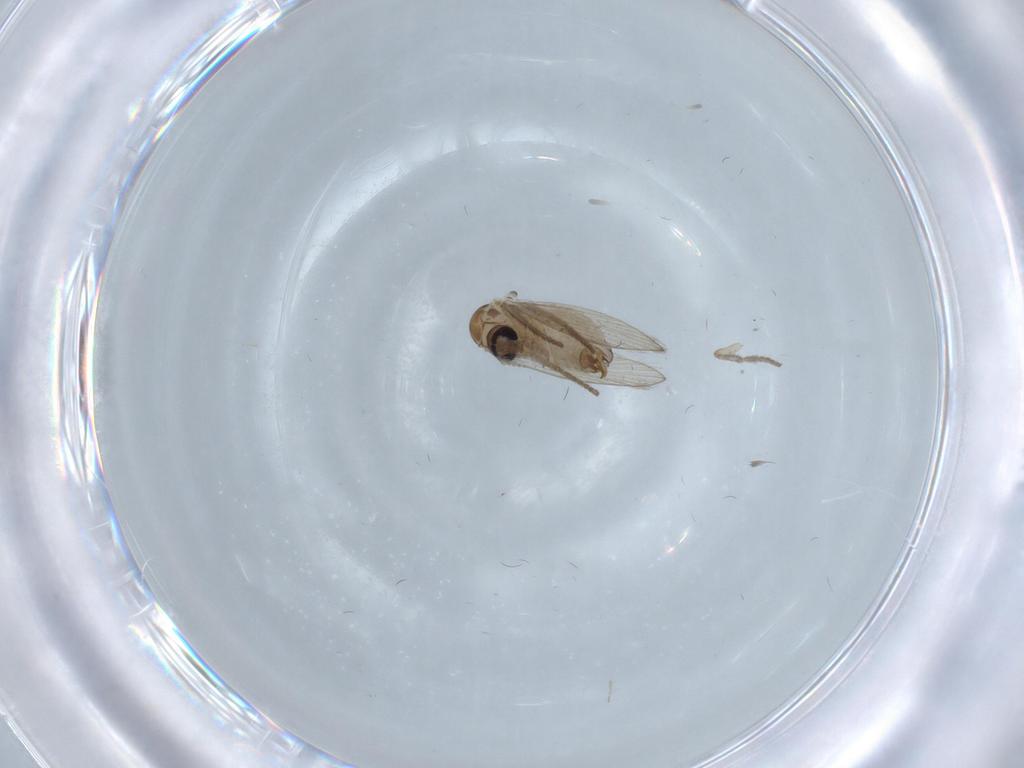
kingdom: Animalia
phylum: Arthropoda
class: Insecta
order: Diptera
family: Psychodidae
